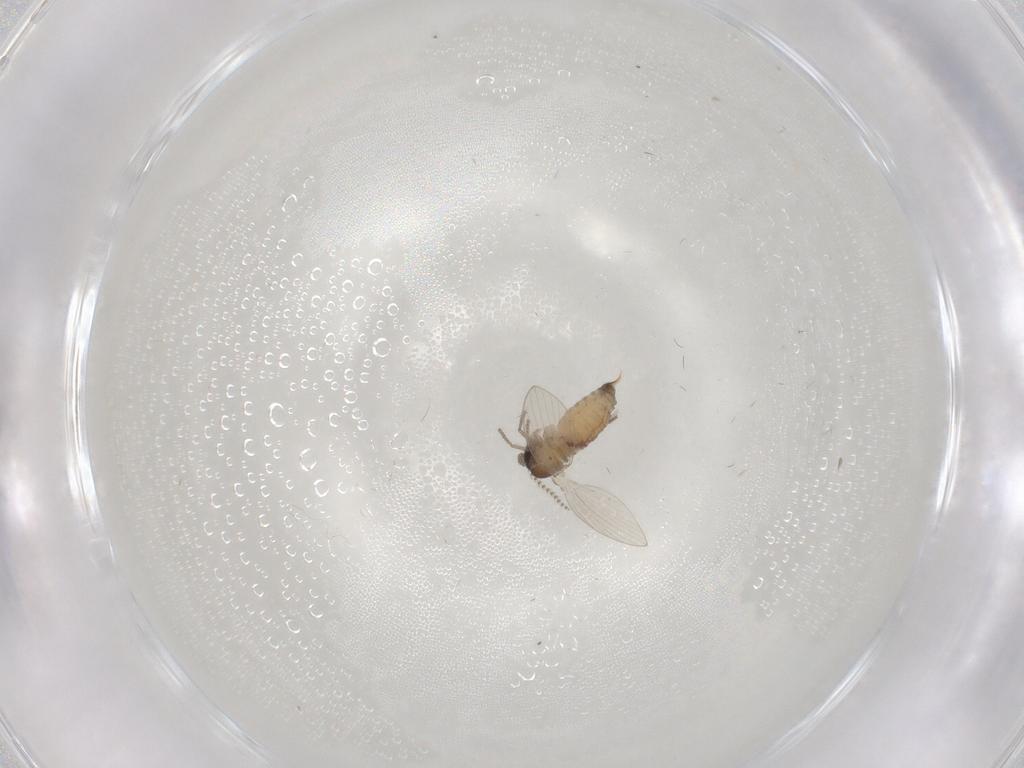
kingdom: Animalia
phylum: Arthropoda
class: Insecta
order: Diptera
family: Psychodidae
